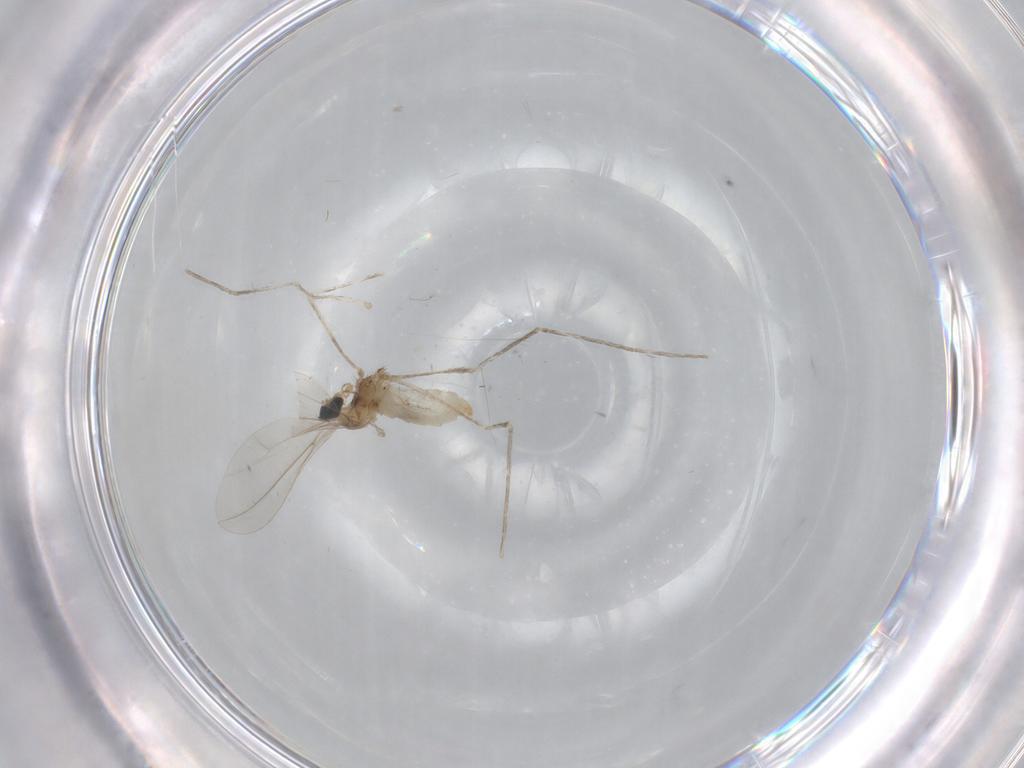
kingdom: Animalia
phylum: Arthropoda
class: Insecta
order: Diptera
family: Cecidomyiidae
